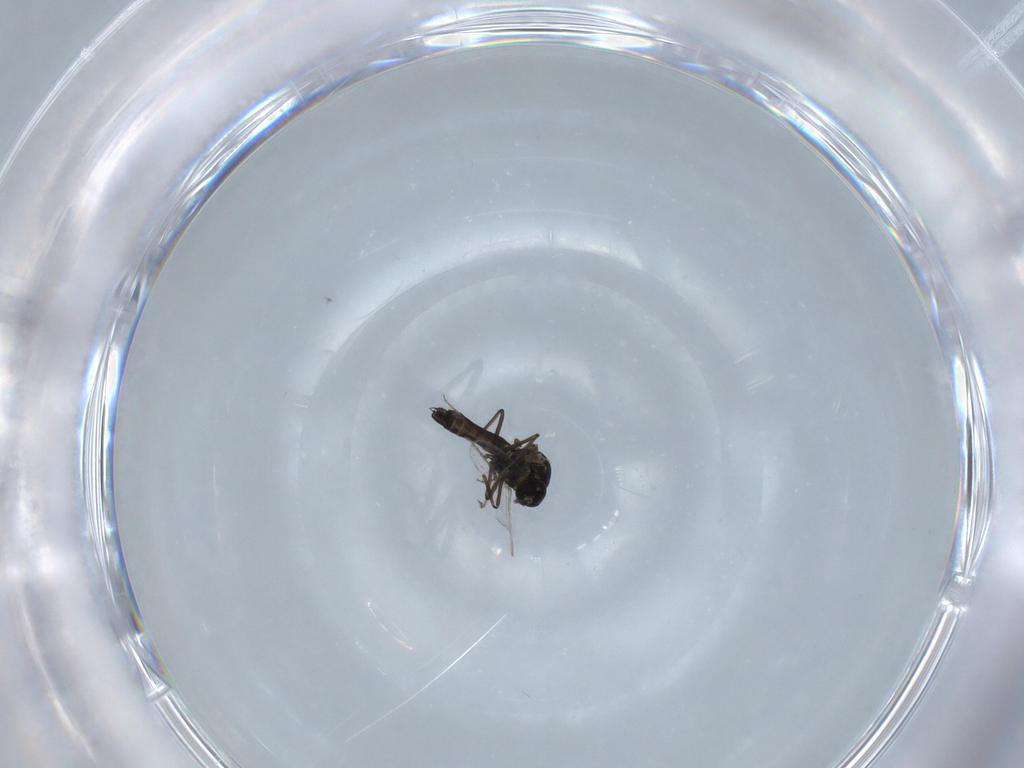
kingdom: Animalia
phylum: Arthropoda
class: Insecta
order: Diptera
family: Ceratopogonidae
